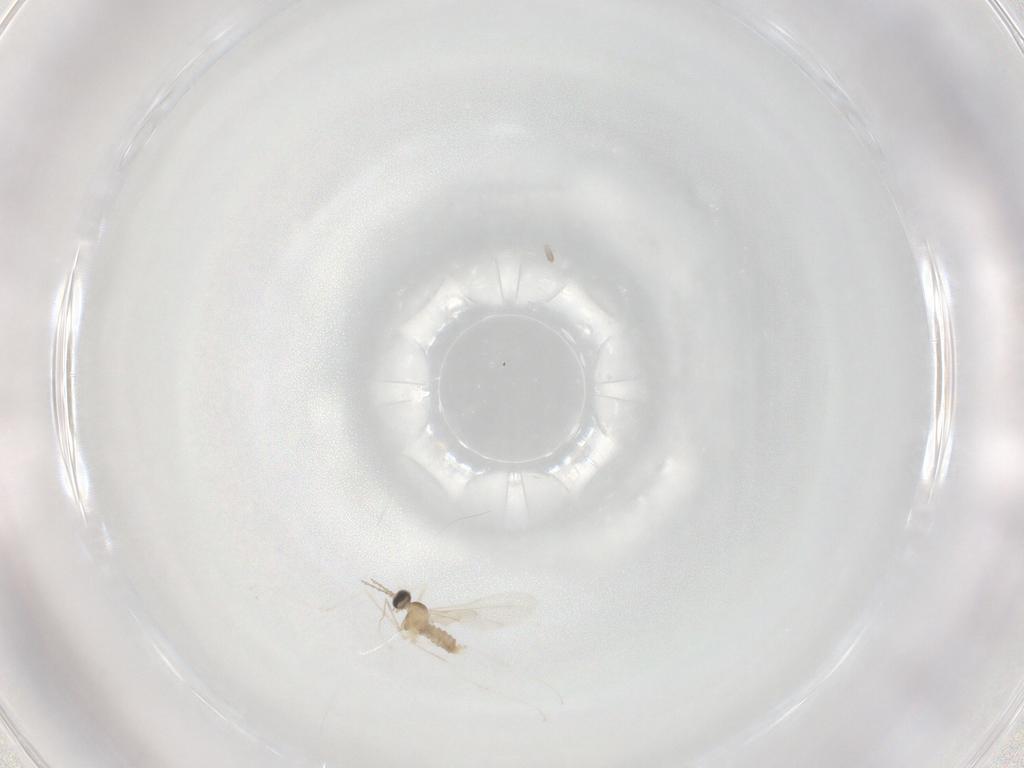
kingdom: Animalia
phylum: Arthropoda
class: Insecta
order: Diptera
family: Cecidomyiidae
